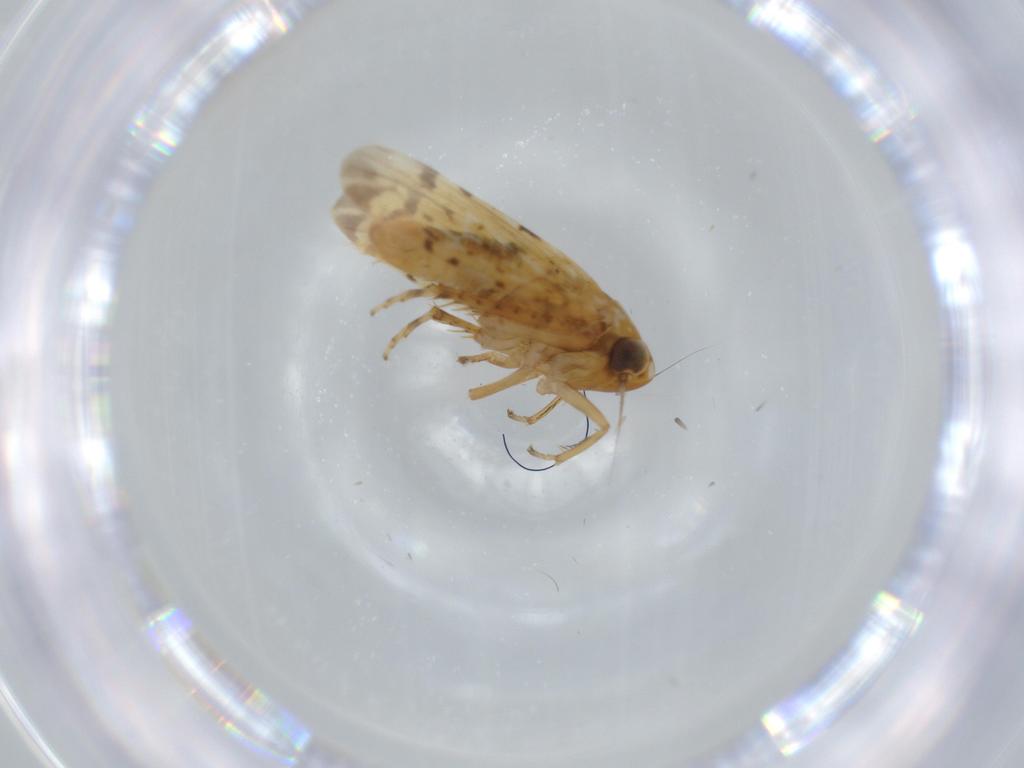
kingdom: Animalia
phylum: Arthropoda
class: Insecta
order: Hemiptera
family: Cicadellidae
